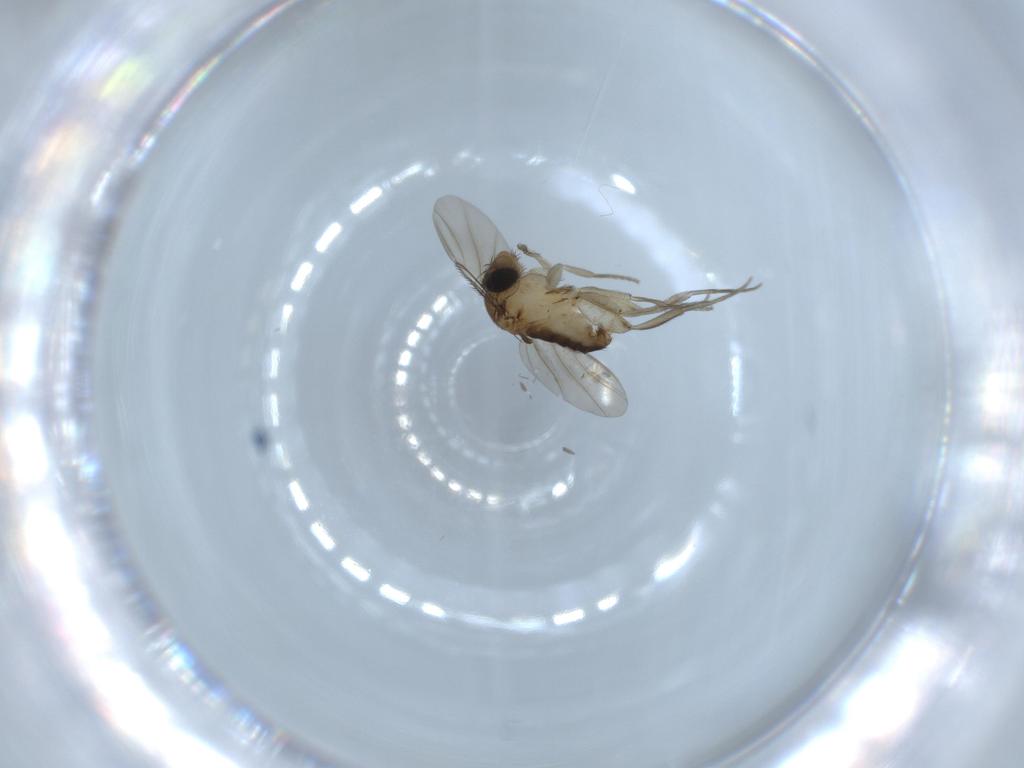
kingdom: Animalia
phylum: Arthropoda
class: Insecta
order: Diptera
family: Phoridae
